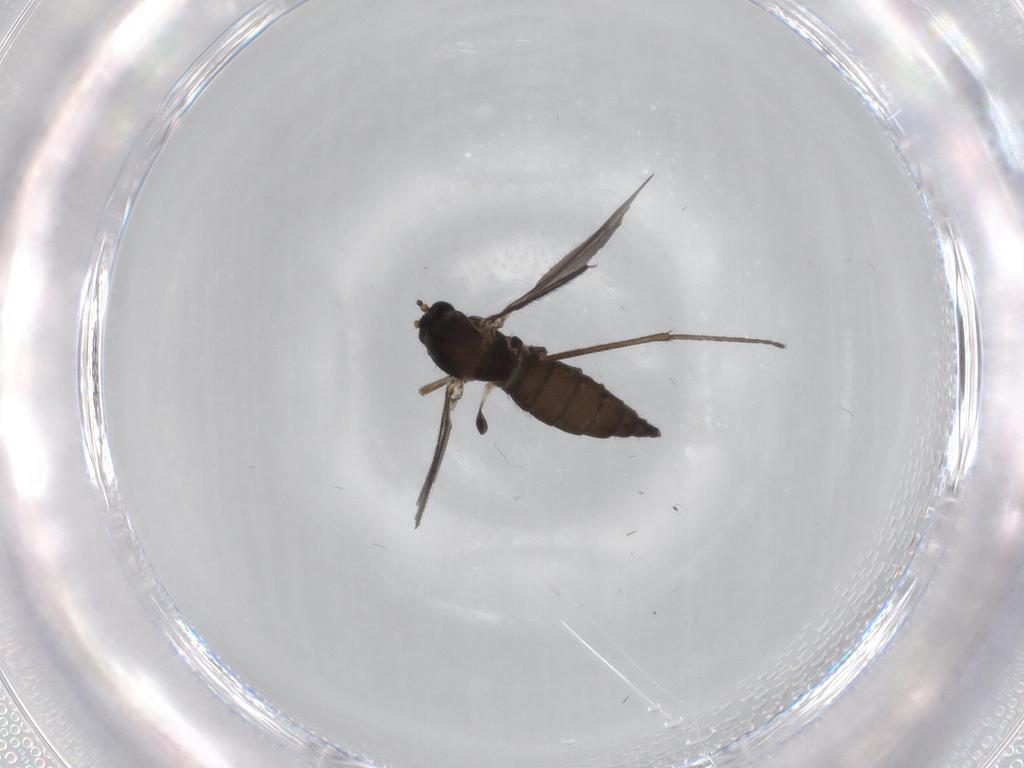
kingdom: Animalia
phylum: Arthropoda
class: Insecta
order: Diptera
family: Sciaridae
